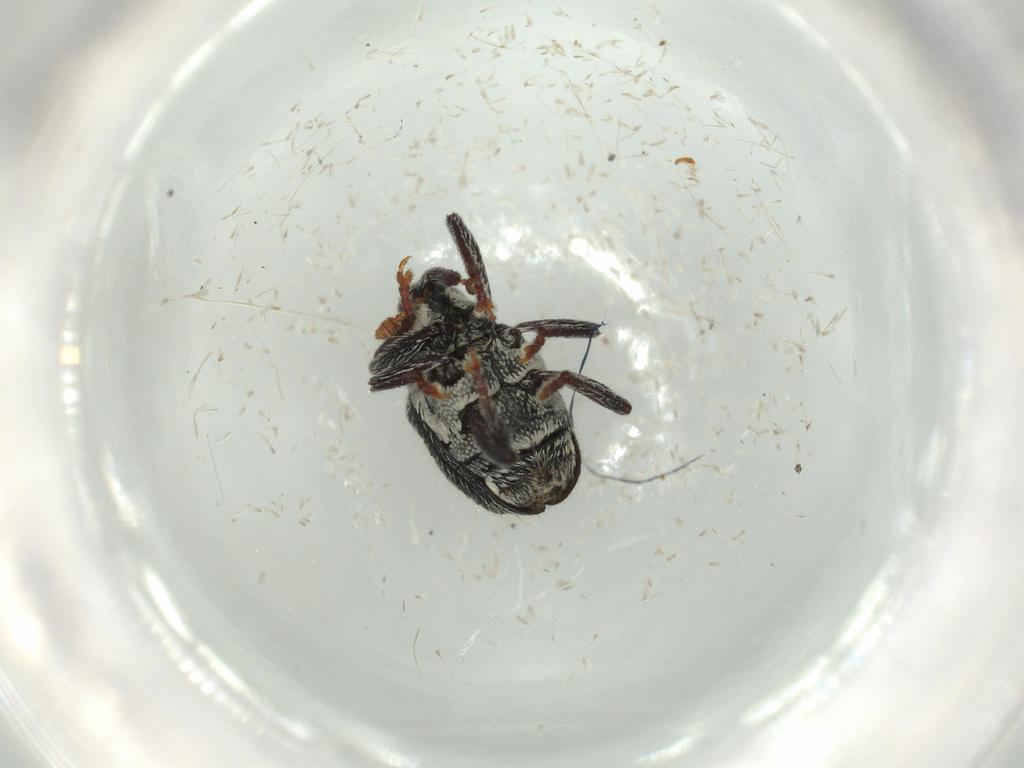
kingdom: Animalia
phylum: Arthropoda
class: Insecta
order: Coleoptera
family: Curculionidae
